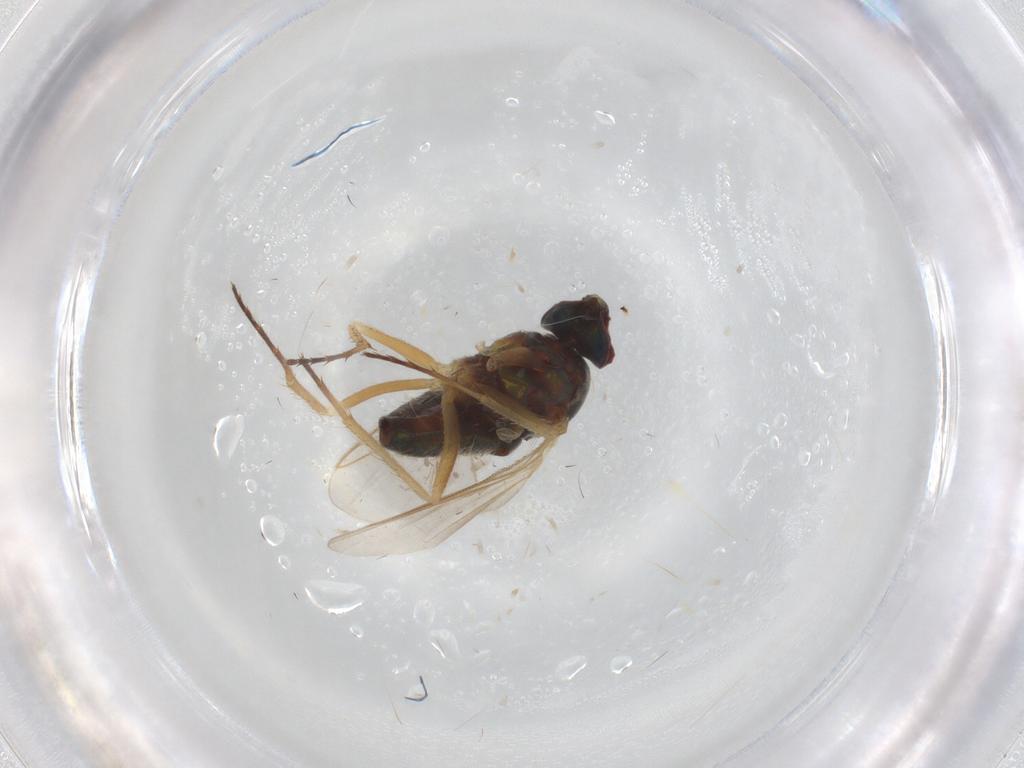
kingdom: Animalia
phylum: Arthropoda
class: Insecta
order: Diptera
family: Dolichopodidae
